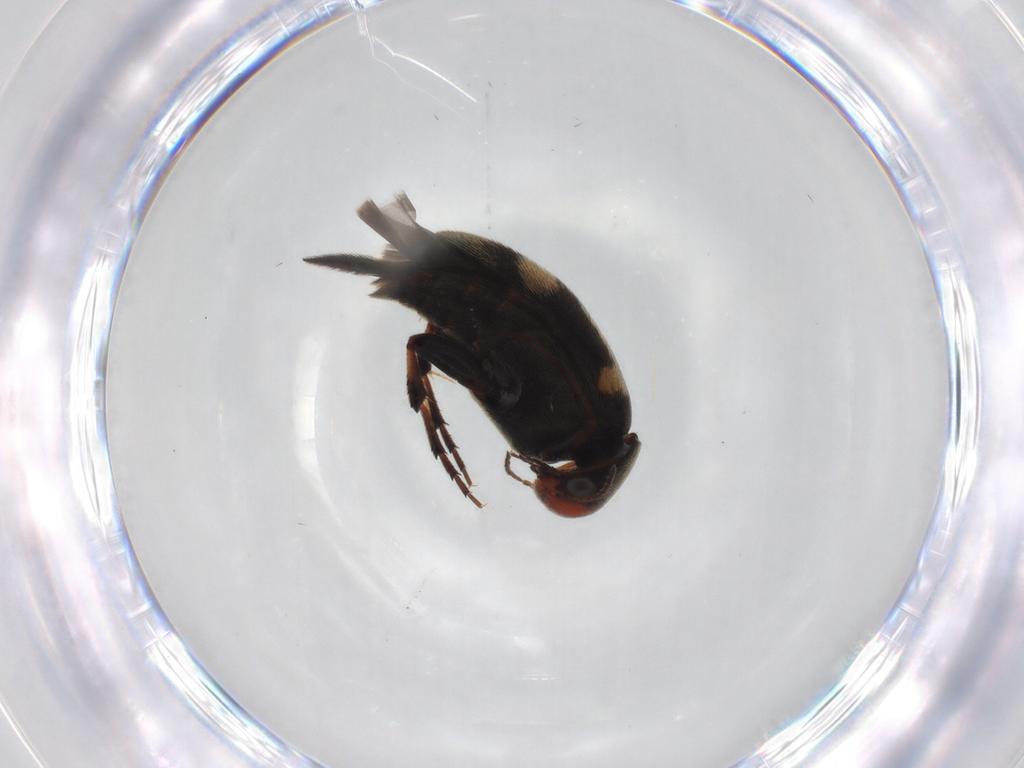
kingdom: Animalia
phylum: Arthropoda
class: Insecta
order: Coleoptera
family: Mordellidae
